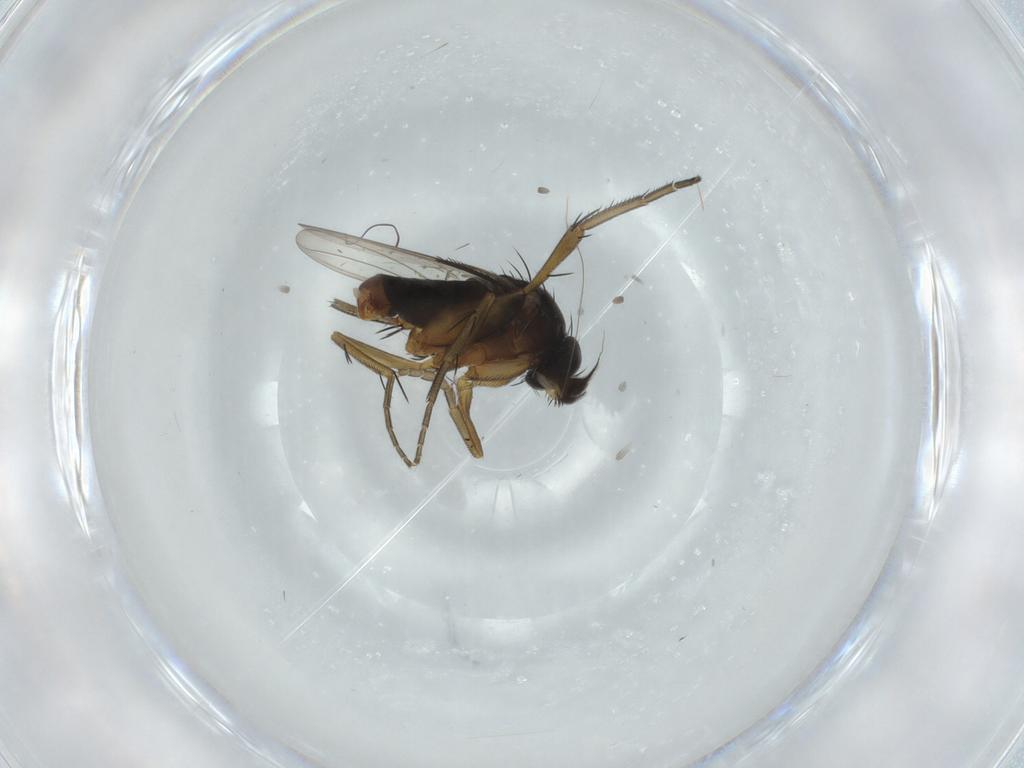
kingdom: Animalia
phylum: Arthropoda
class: Insecta
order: Diptera
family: Phoridae
